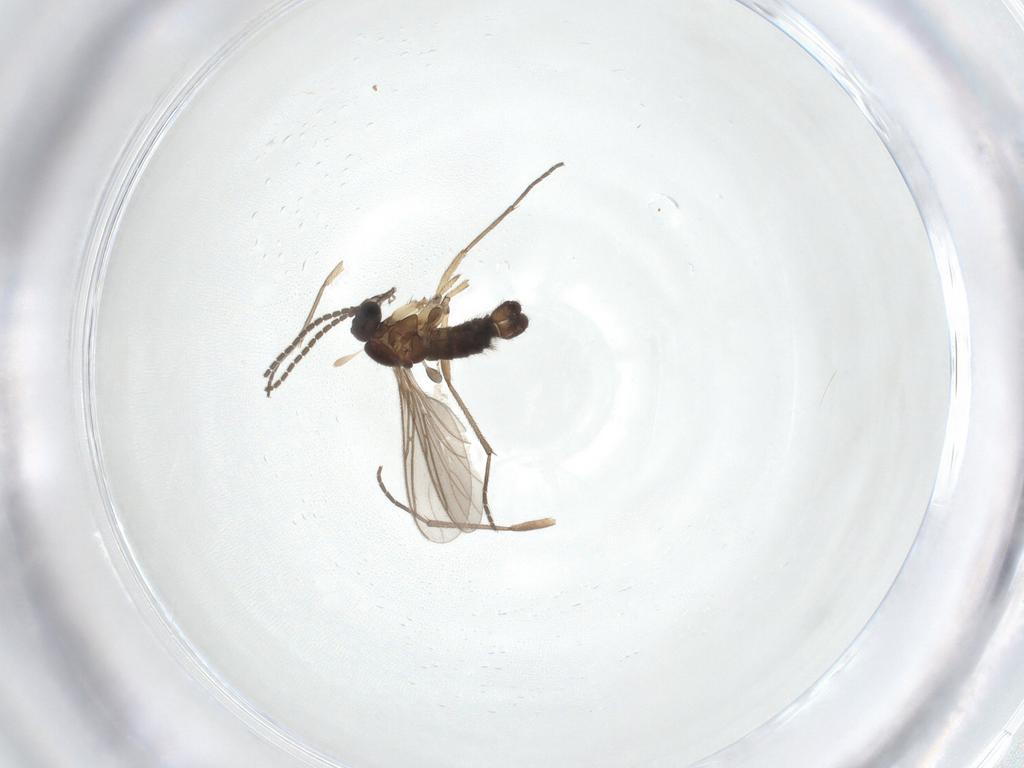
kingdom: Animalia
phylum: Arthropoda
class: Insecta
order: Diptera
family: Sciaridae
